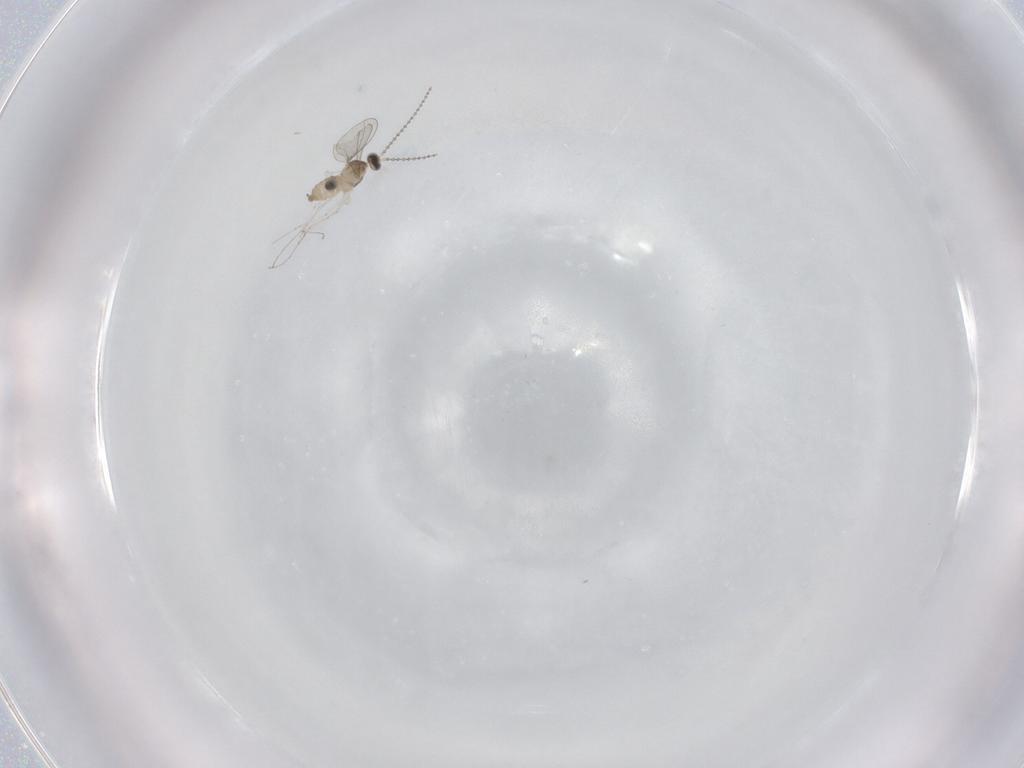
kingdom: Animalia
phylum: Arthropoda
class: Insecta
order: Diptera
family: Cecidomyiidae
